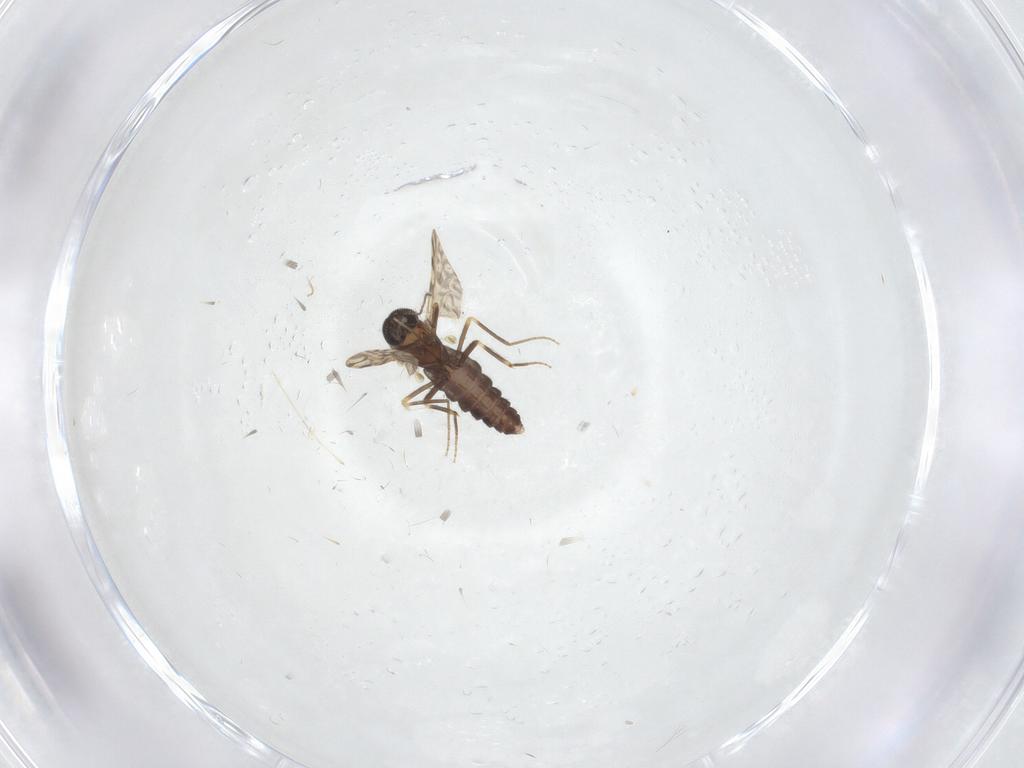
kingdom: Animalia
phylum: Arthropoda
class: Insecta
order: Diptera
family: Ceratopogonidae
